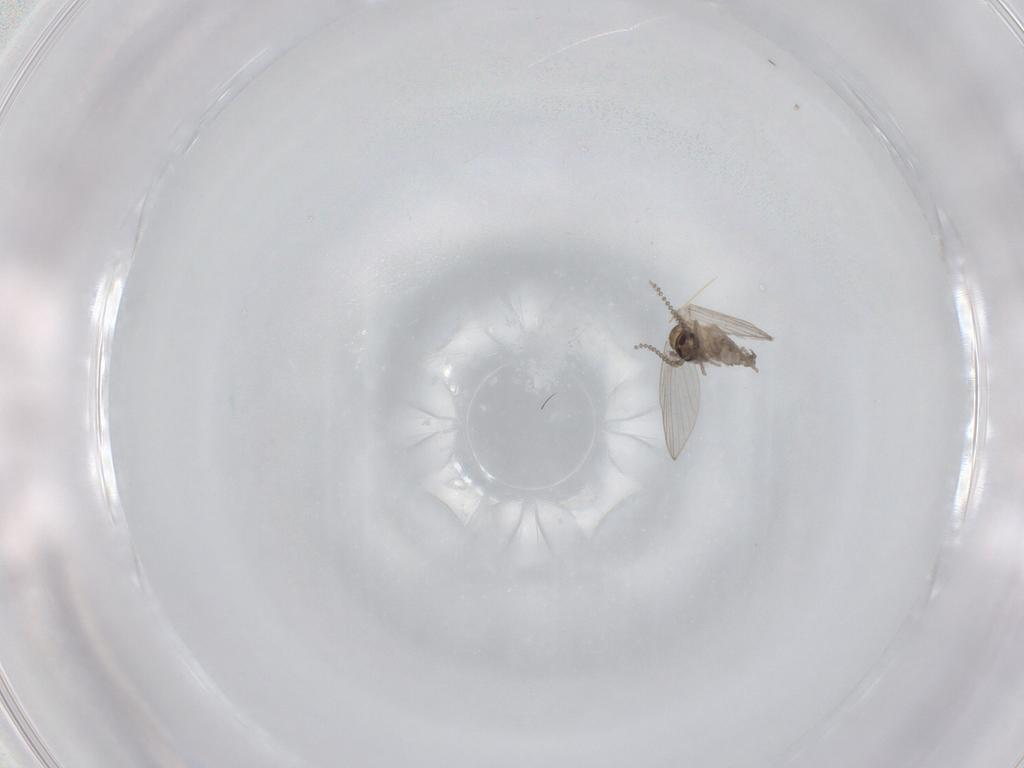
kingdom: Animalia
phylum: Arthropoda
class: Insecta
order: Diptera
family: Psychodidae
